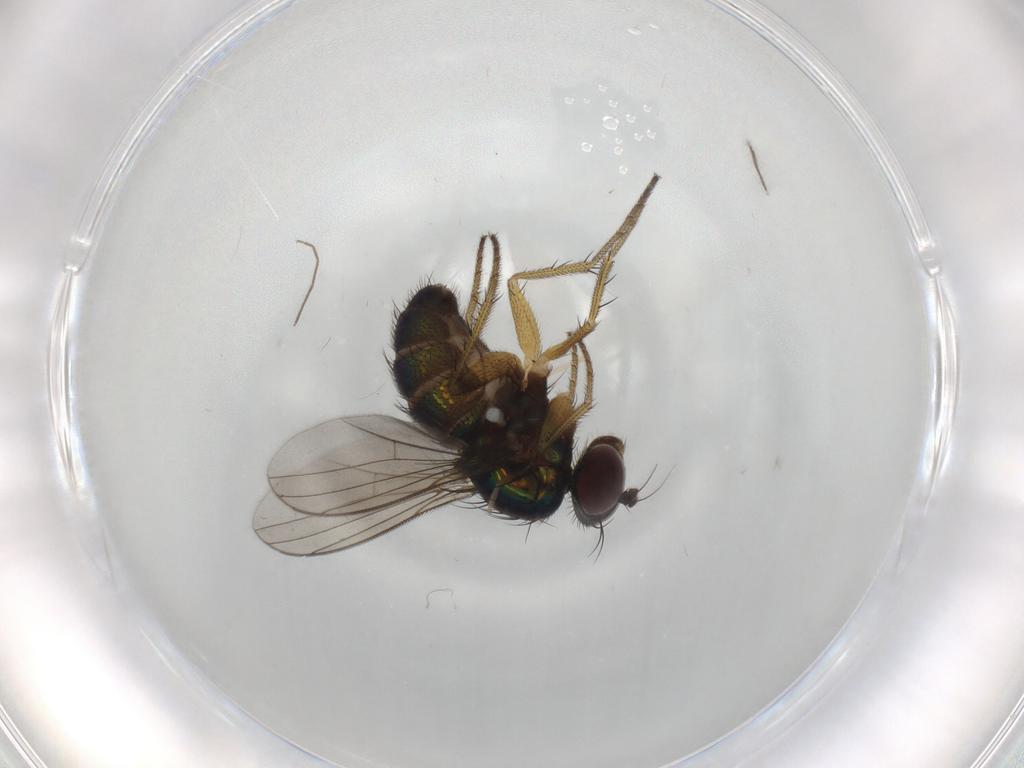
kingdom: Animalia
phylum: Arthropoda
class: Insecta
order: Diptera
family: Dolichopodidae
